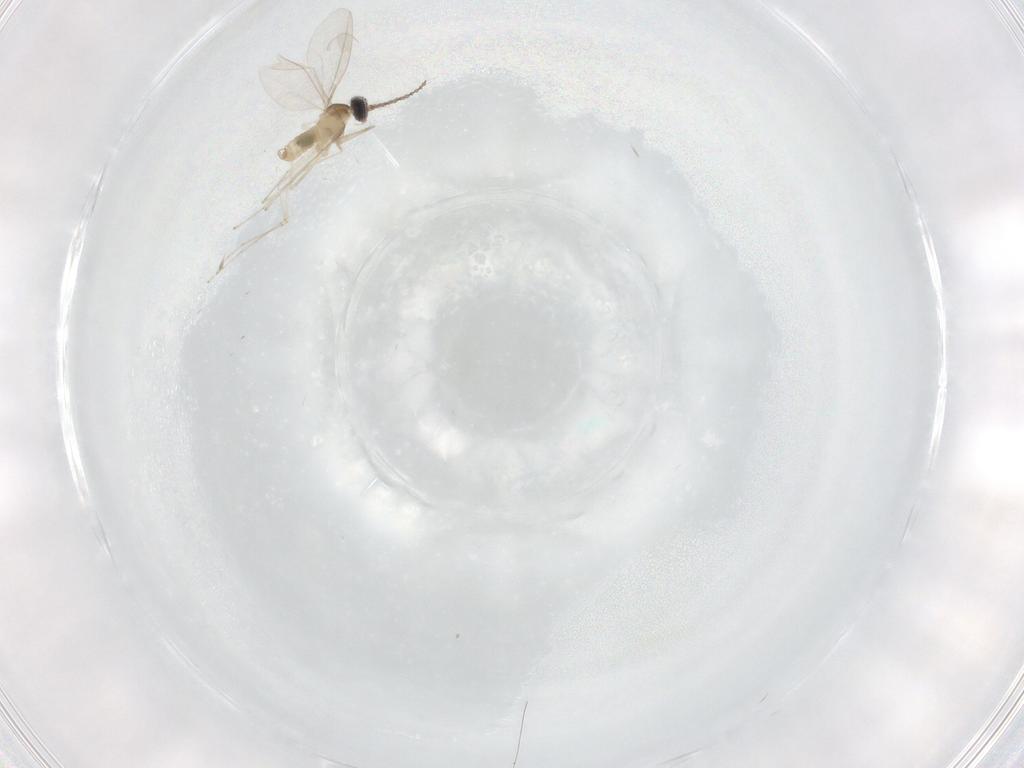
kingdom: Animalia
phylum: Arthropoda
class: Insecta
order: Diptera
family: Cecidomyiidae
